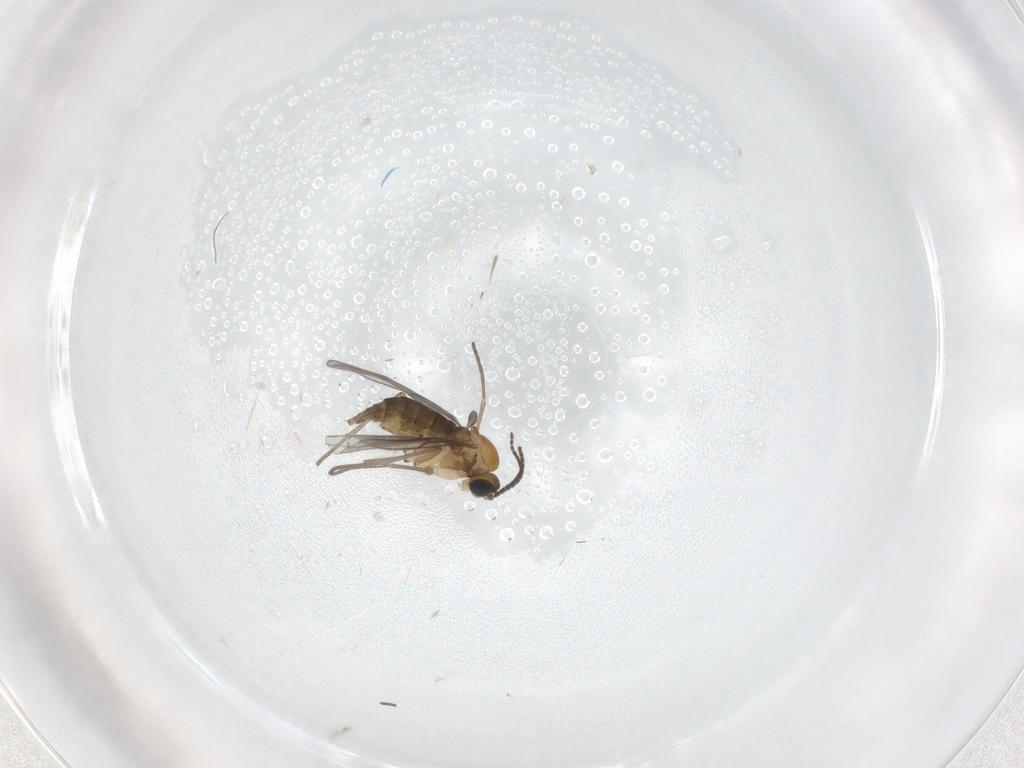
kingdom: Animalia
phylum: Arthropoda
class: Insecta
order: Diptera
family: Sciaridae
